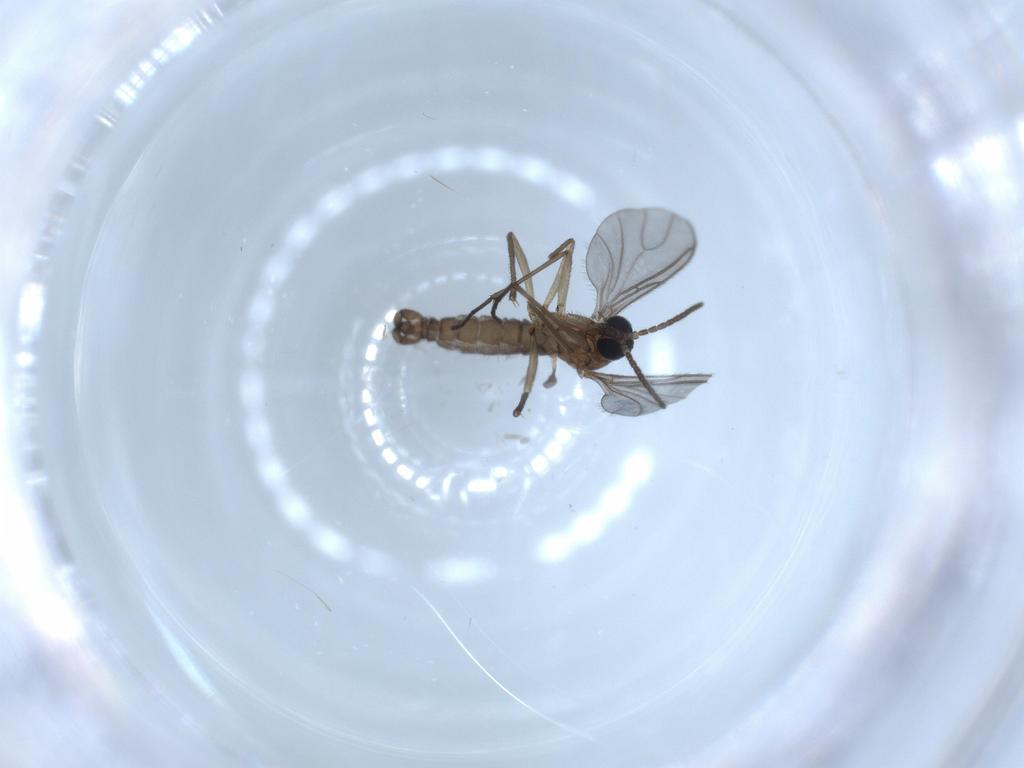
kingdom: Animalia
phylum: Arthropoda
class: Insecta
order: Diptera
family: Sciaridae
